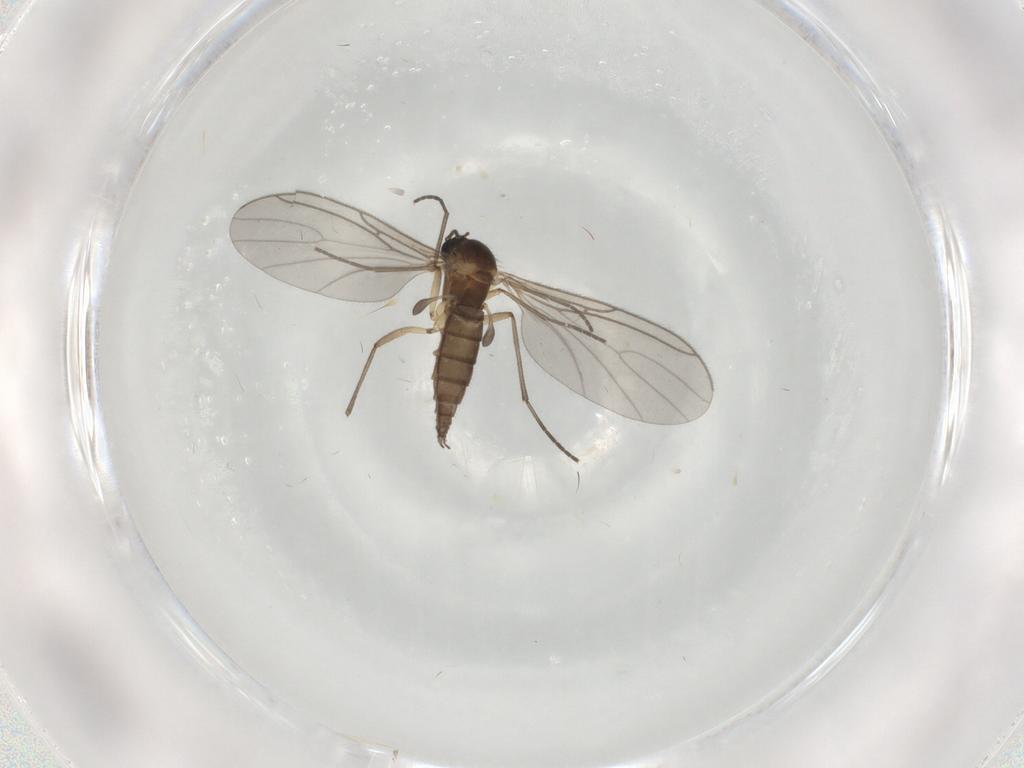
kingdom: Animalia
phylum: Arthropoda
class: Insecta
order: Diptera
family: Sciaridae
